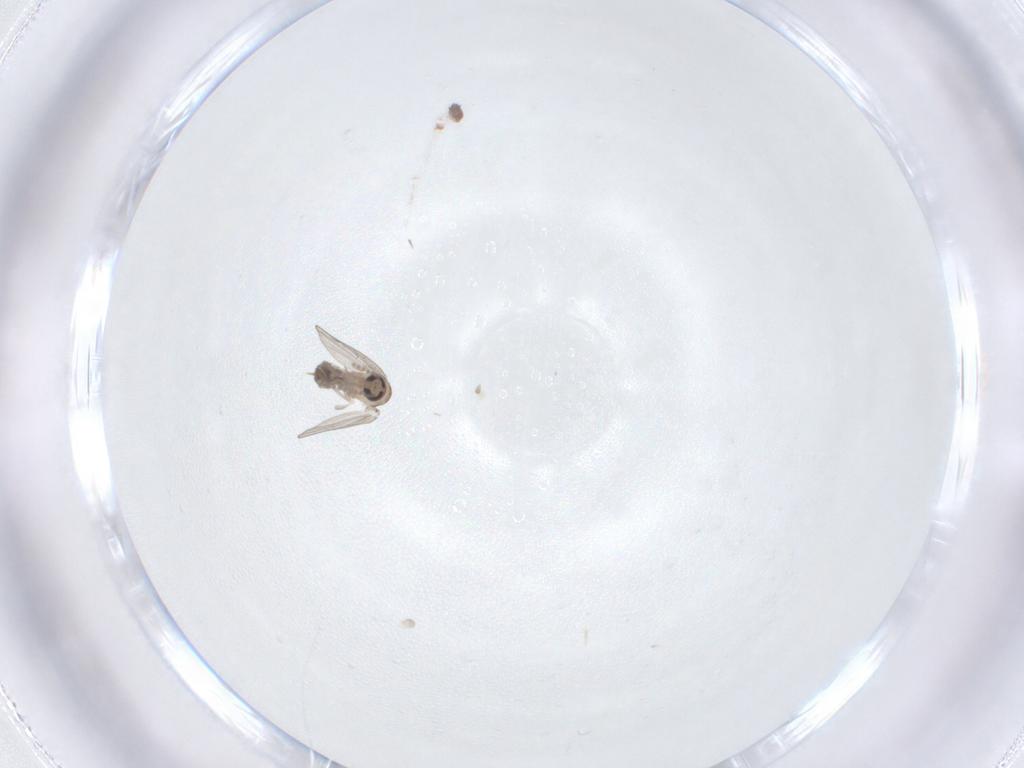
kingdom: Animalia
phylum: Arthropoda
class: Insecta
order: Diptera
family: Psychodidae
